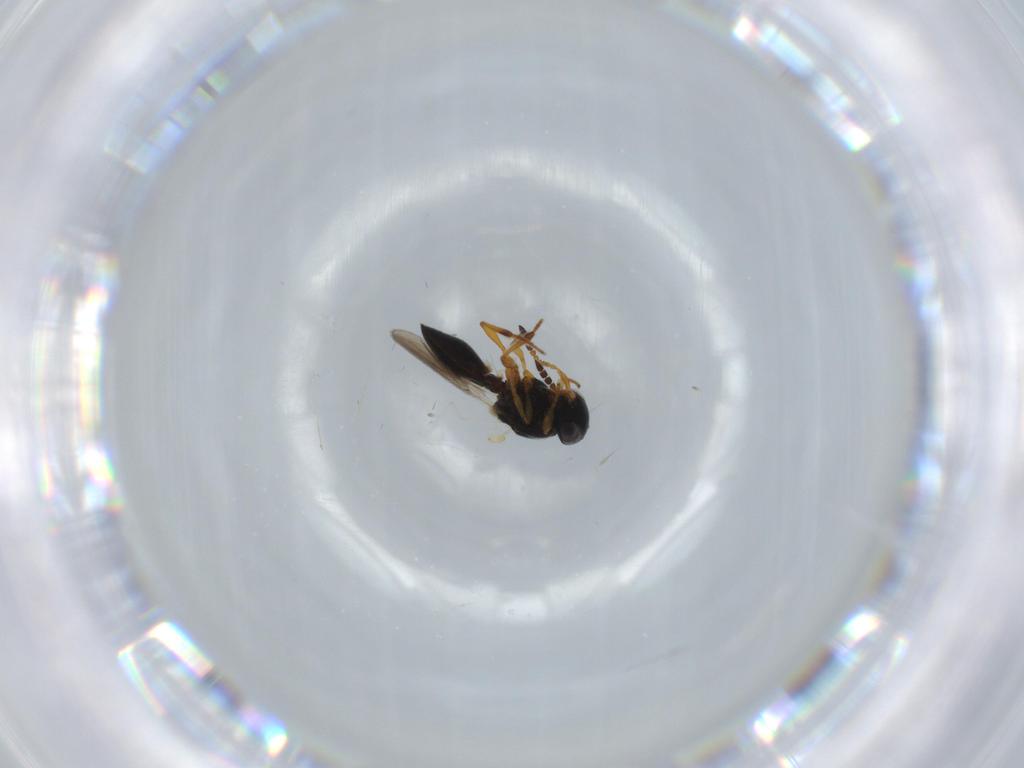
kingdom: Animalia
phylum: Arthropoda
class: Insecta
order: Hymenoptera
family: Platygastridae
